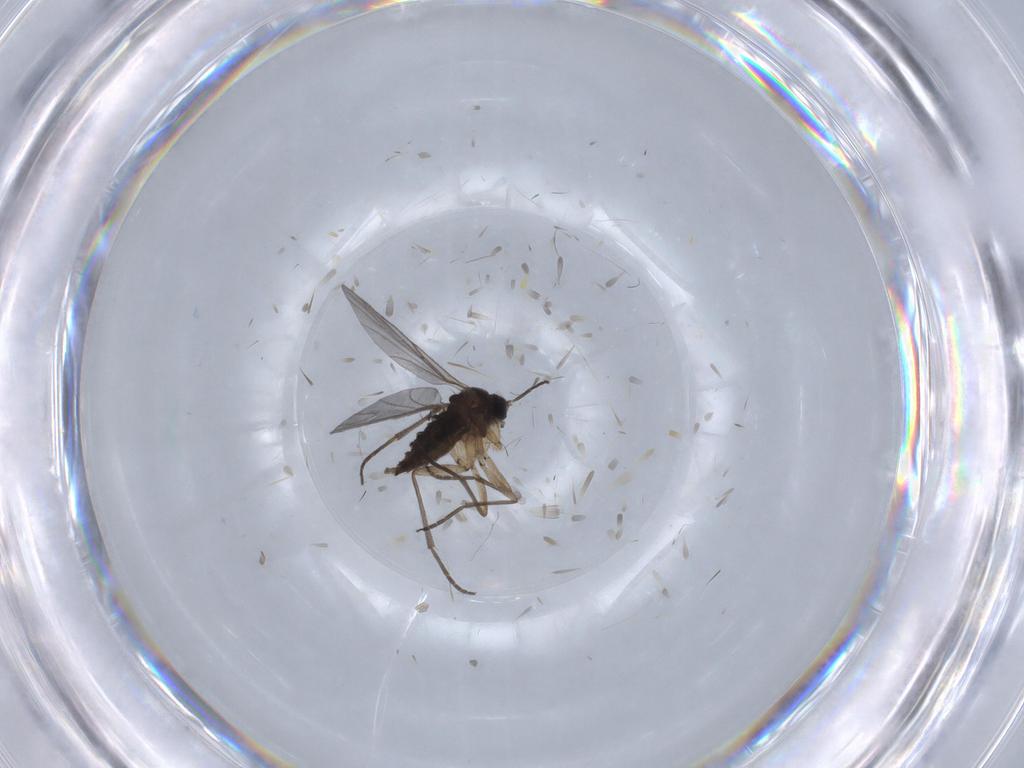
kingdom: Animalia
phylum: Arthropoda
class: Insecta
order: Diptera
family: Sciaridae
